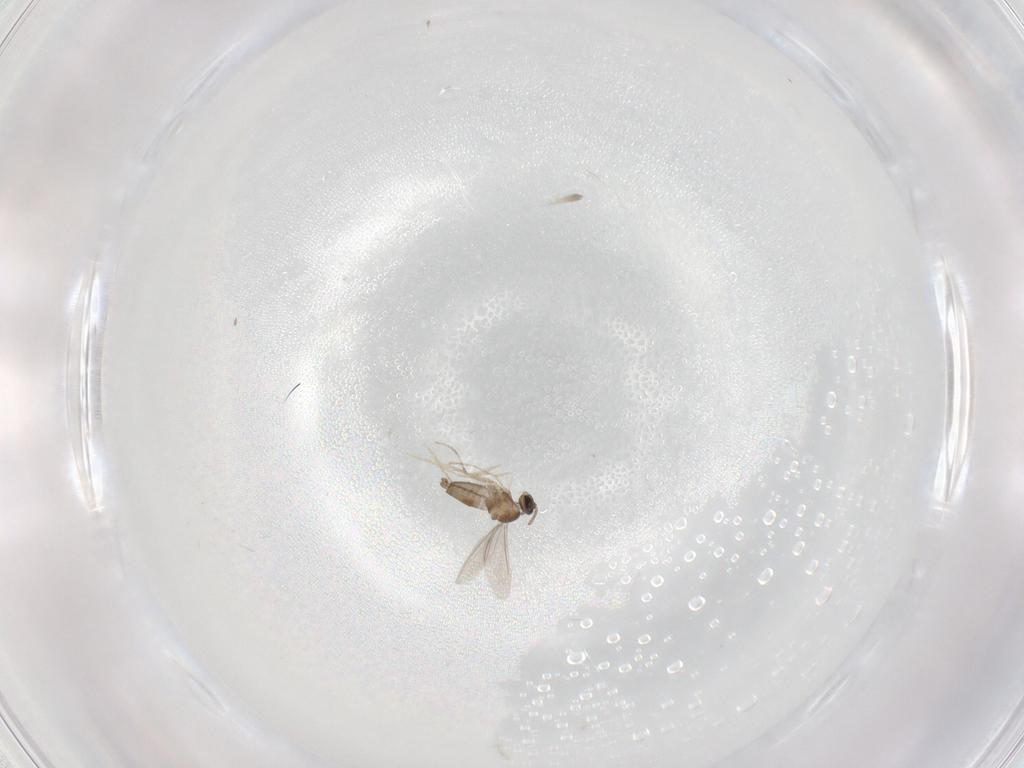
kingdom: Animalia
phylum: Arthropoda
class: Insecta
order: Diptera
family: Cecidomyiidae
